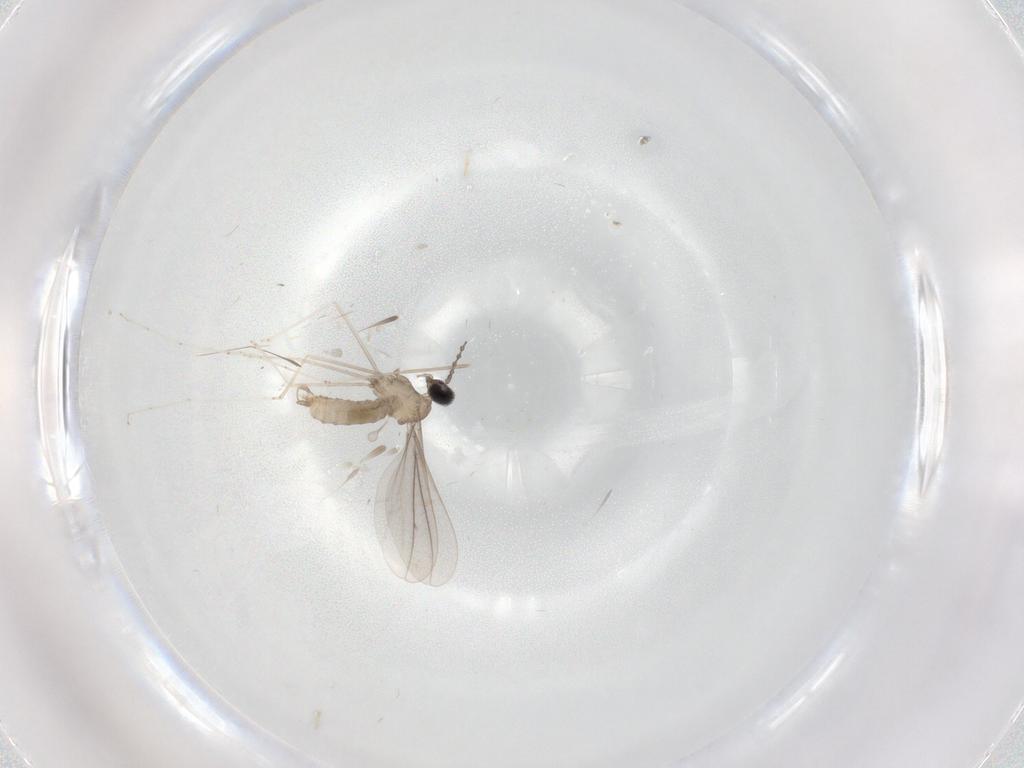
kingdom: Animalia
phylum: Arthropoda
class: Insecta
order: Diptera
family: Cecidomyiidae
